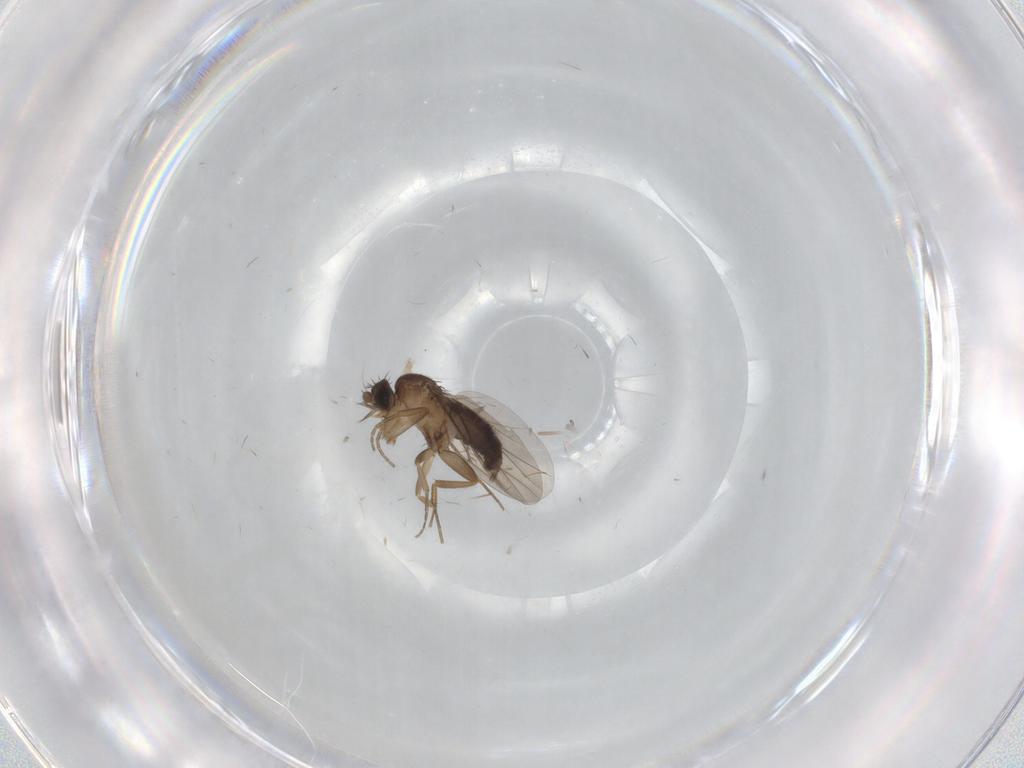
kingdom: Animalia
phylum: Arthropoda
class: Insecta
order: Diptera
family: Sciaridae
